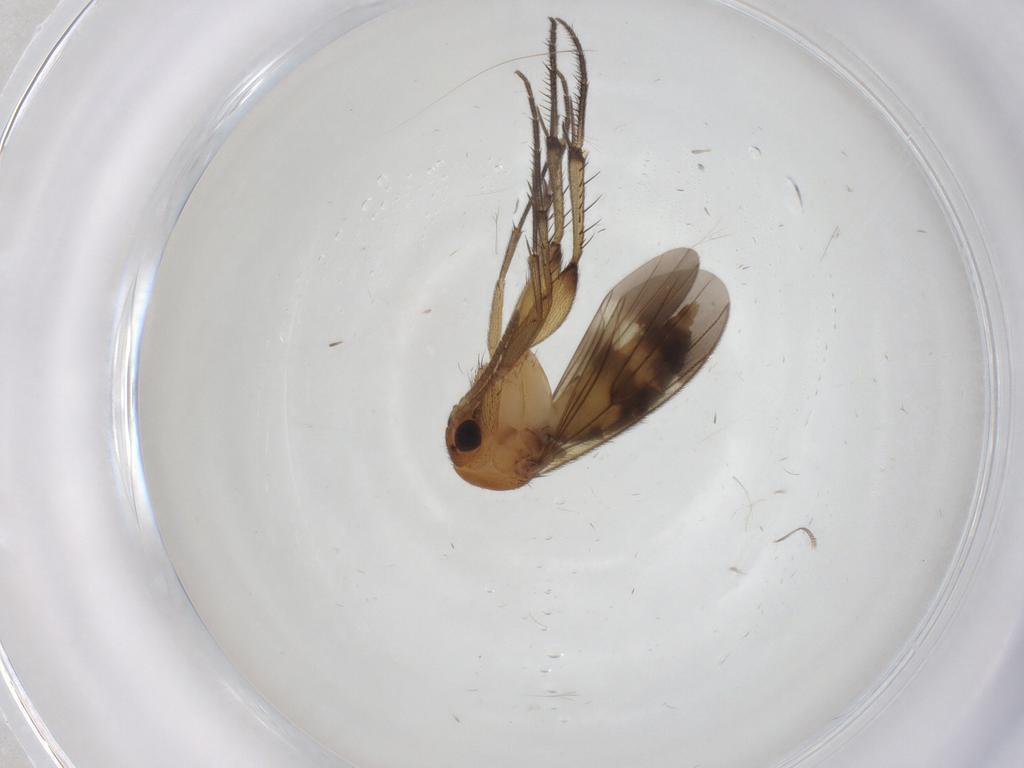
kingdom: Animalia
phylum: Arthropoda
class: Insecta
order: Diptera
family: Mycetophilidae
